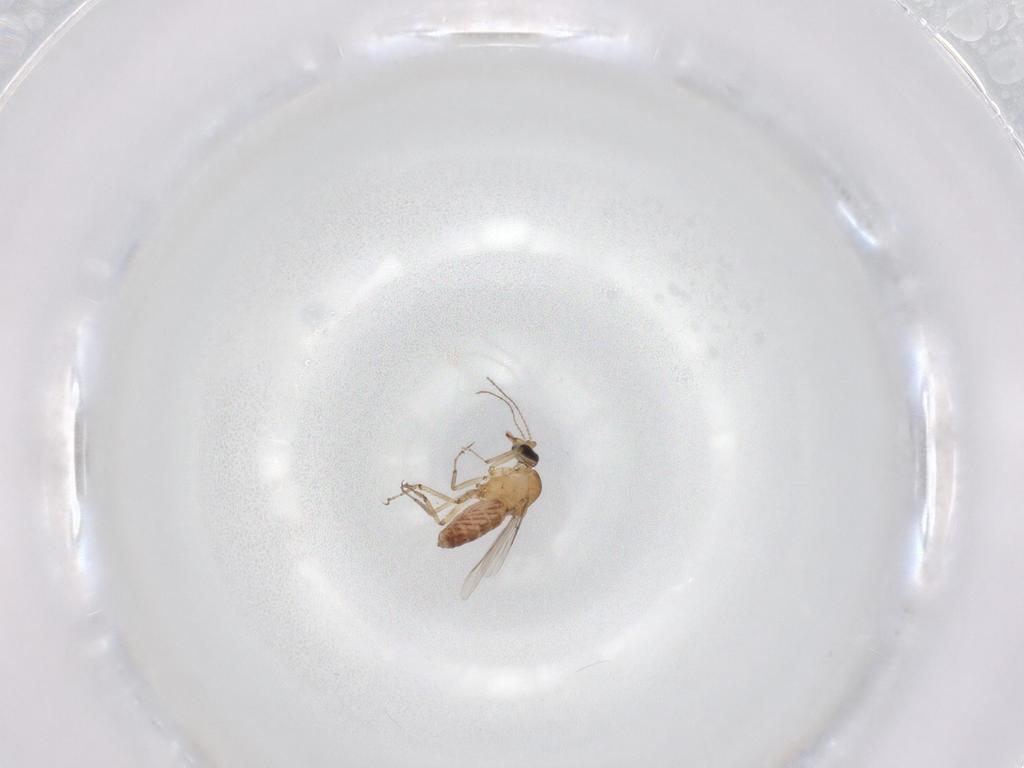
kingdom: Animalia
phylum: Arthropoda
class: Insecta
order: Diptera
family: Ceratopogonidae
